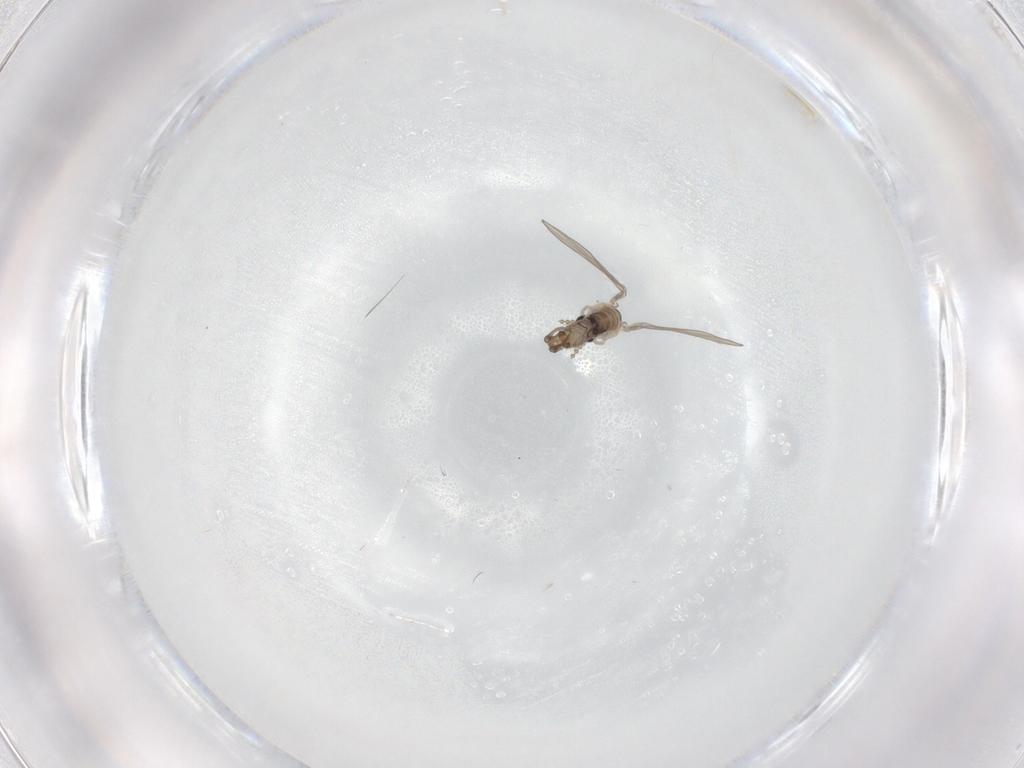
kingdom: Animalia
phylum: Arthropoda
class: Insecta
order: Diptera
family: Psychodidae
